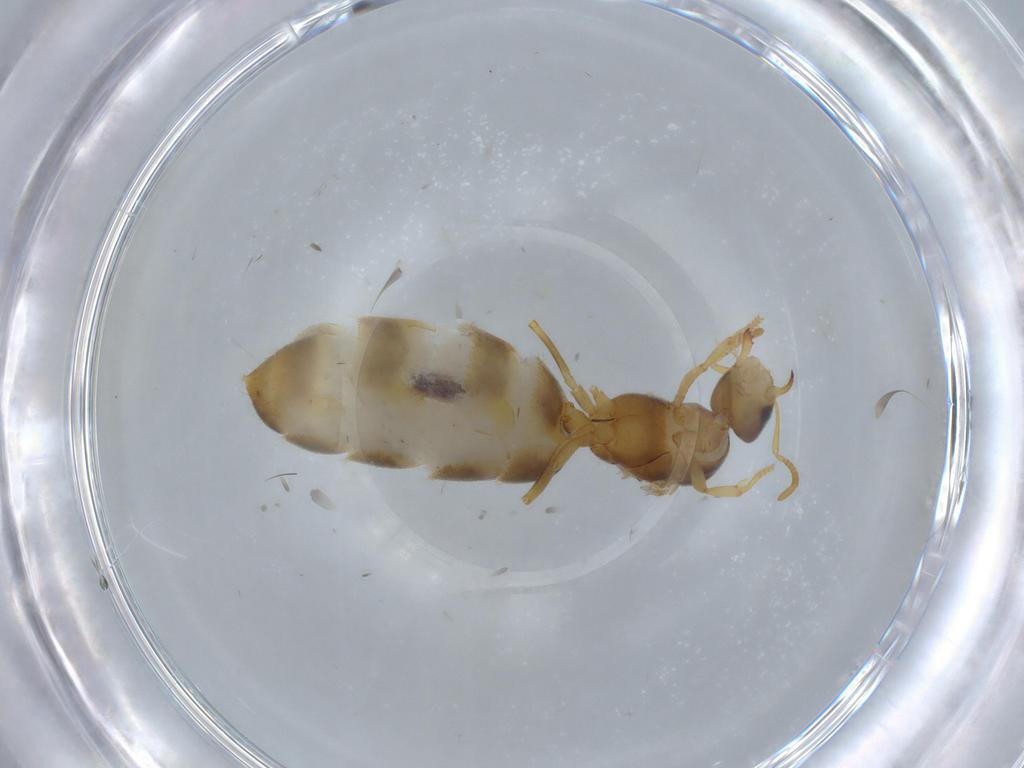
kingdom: Animalia
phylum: Arthropoda
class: Insecta
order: Hymenoptera
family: Formicidae
